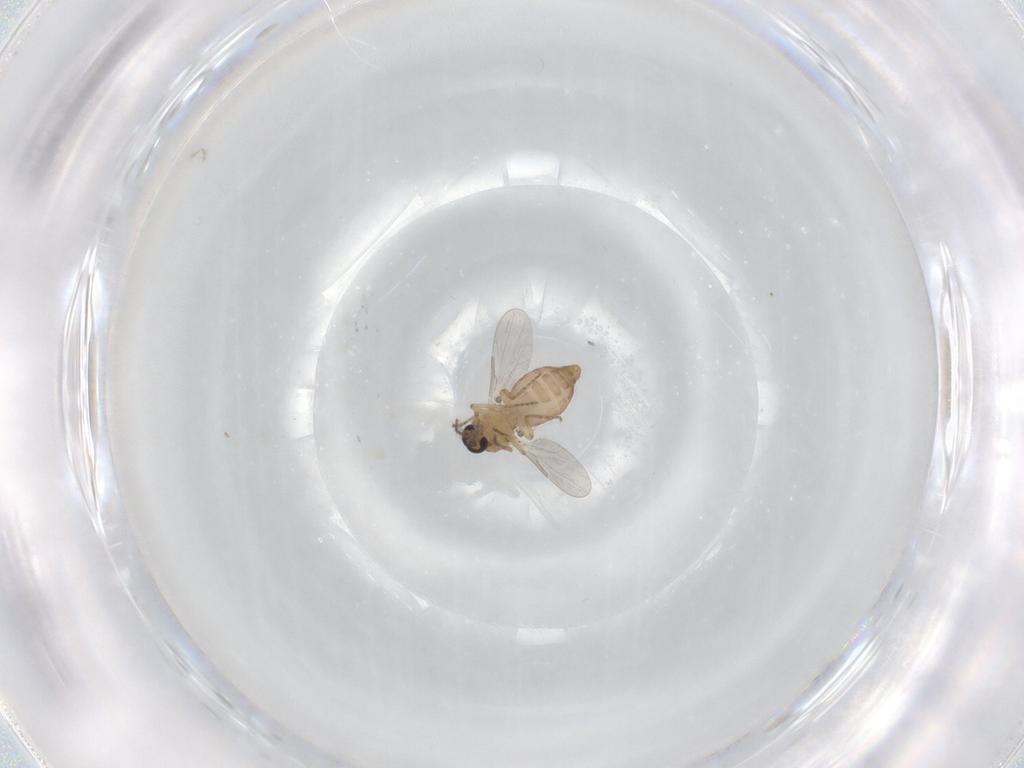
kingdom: Animalia
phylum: Arthropoda
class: Insecta
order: Diptera
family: Ceratopogonidae
